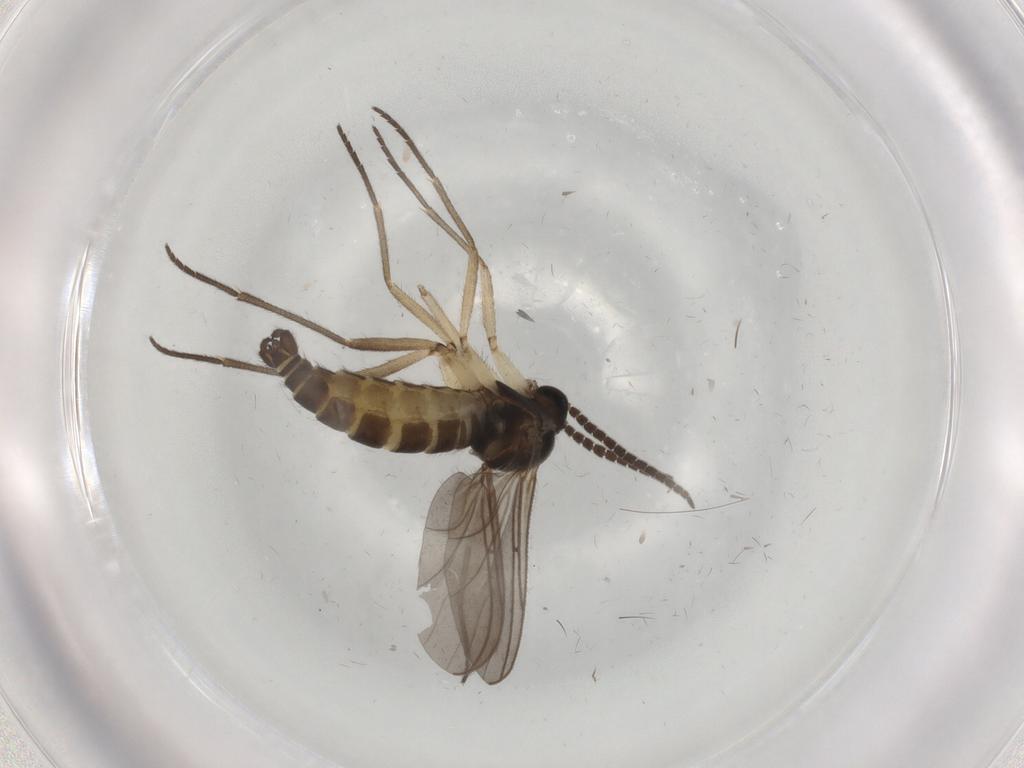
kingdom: Animalia
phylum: Arthropoda
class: Insecta
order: Diptera
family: Sciaridae
